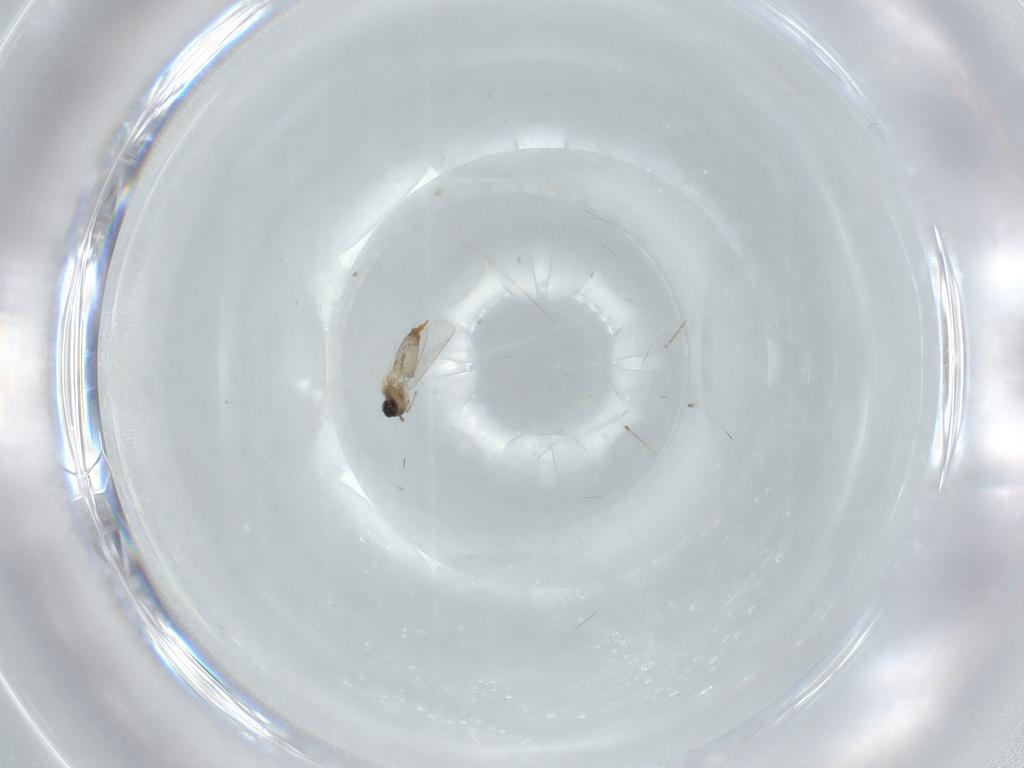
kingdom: Animalia
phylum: Arthropoda
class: Insecta
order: Diptera
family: Cecidomyiidae
